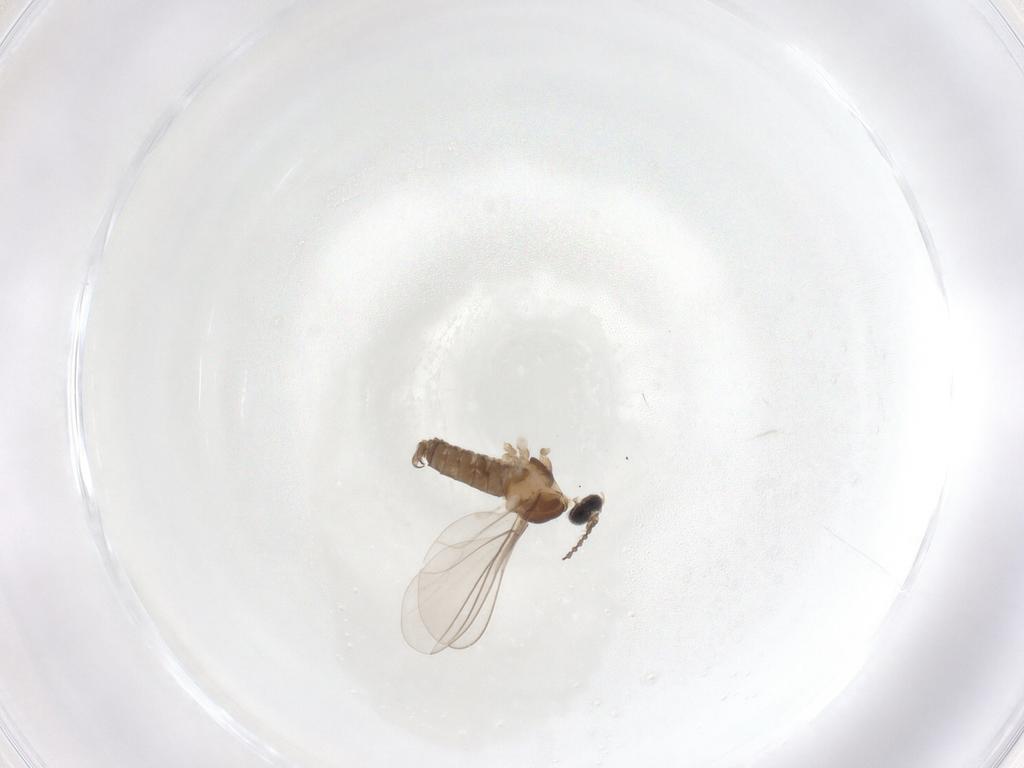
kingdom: Animalia
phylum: Arthropoda
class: Insecta
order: Diptera
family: Cecidomyiidae
